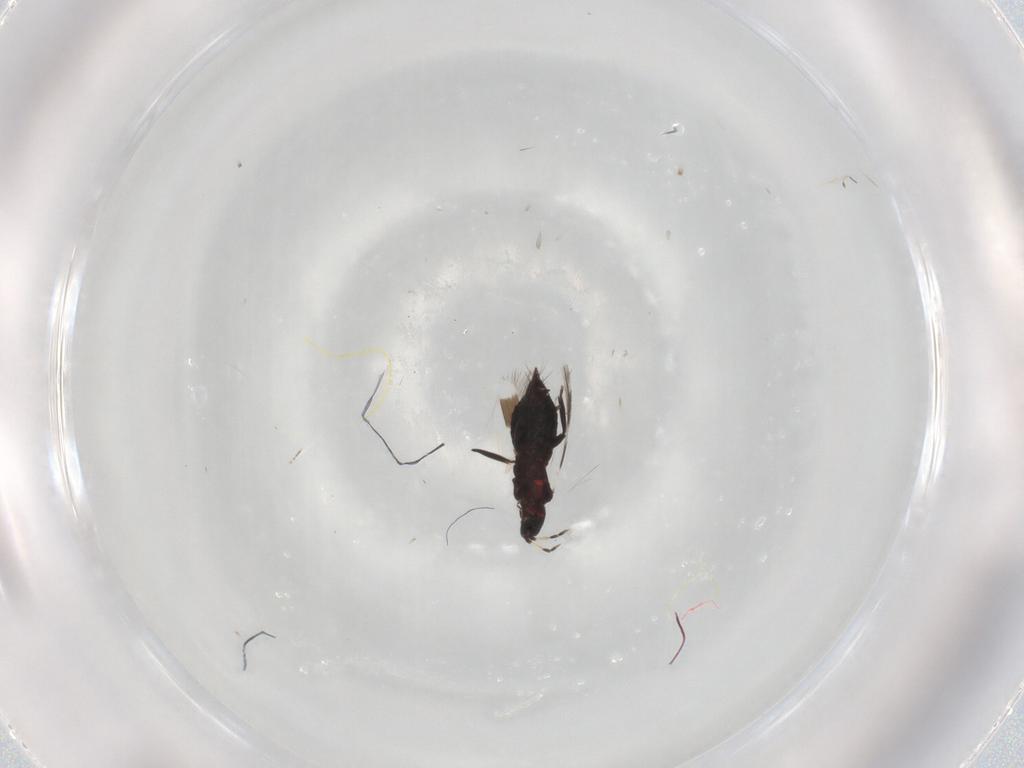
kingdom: Animalia
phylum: Arthropoda
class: Insecta
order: Thysanoptera
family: Aeolothripidae
